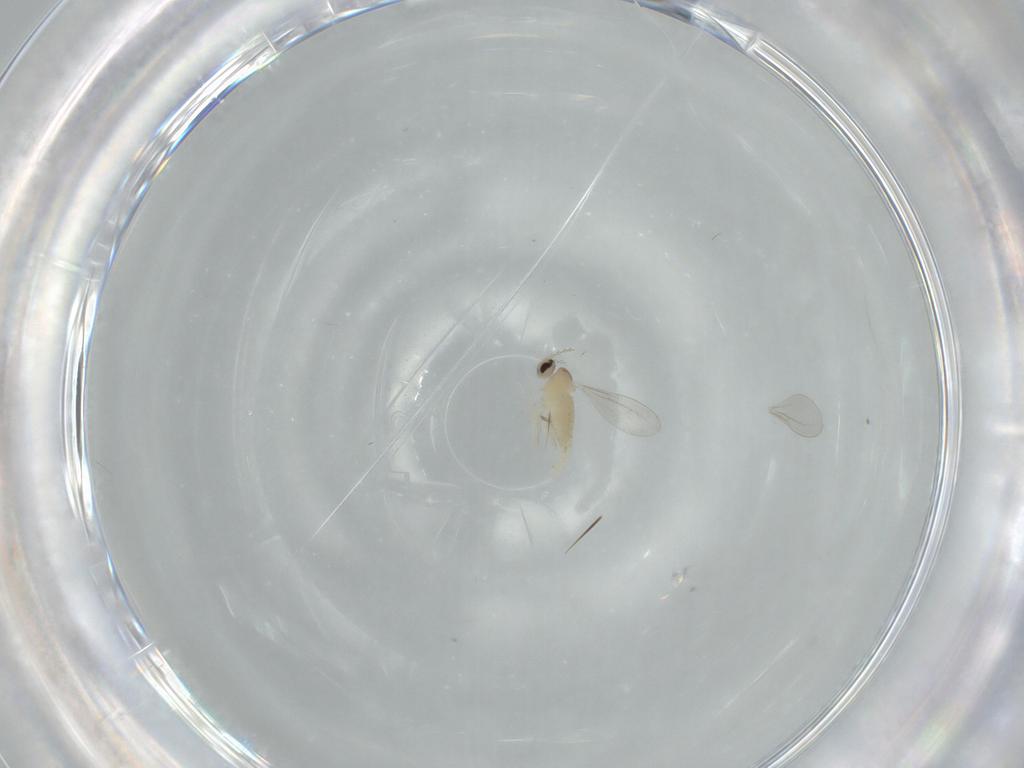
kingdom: Animalia
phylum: Arthropoda
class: Insecta
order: Diptera
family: Cecidomyiidae
